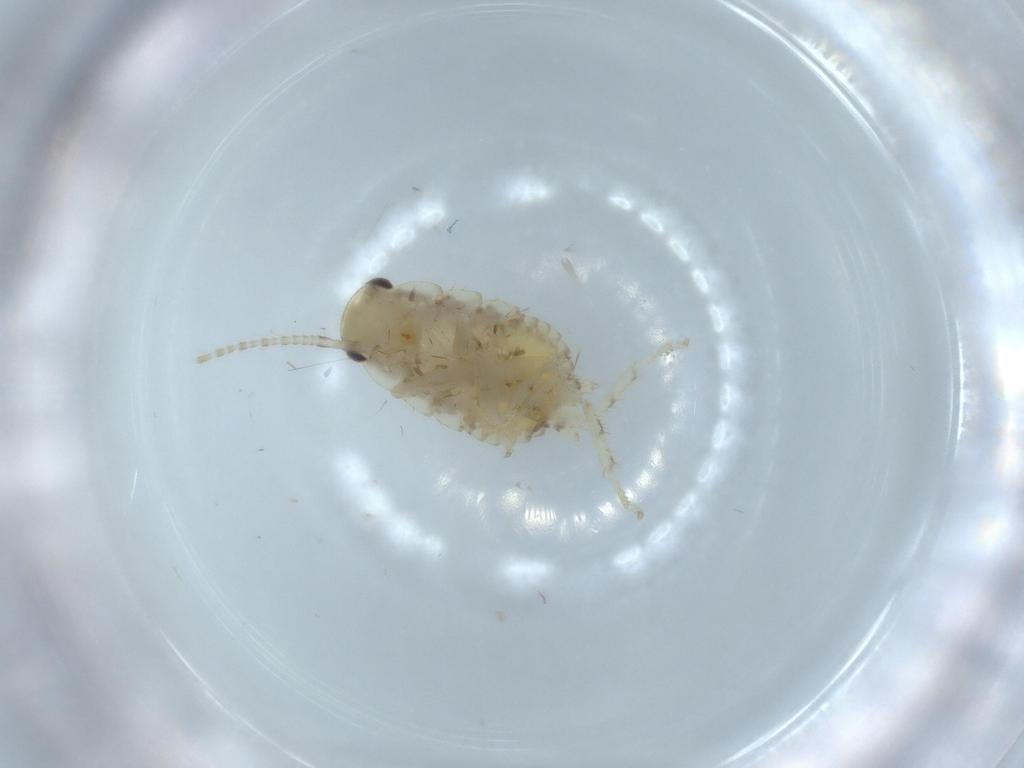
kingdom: Animalia
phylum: Arthropoda
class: Insecta
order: Blattodea
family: Ectobiidae
